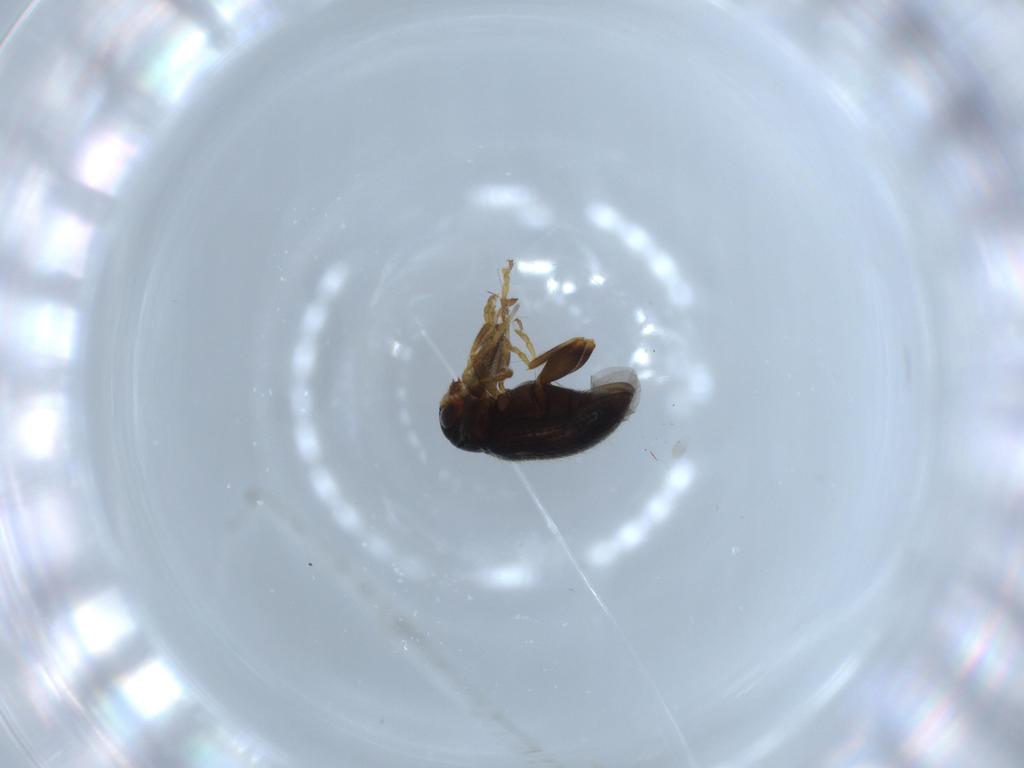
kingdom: Animalia
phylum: Arthropoda
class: Insecta
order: Coleoptera
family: Chrysomelidae
